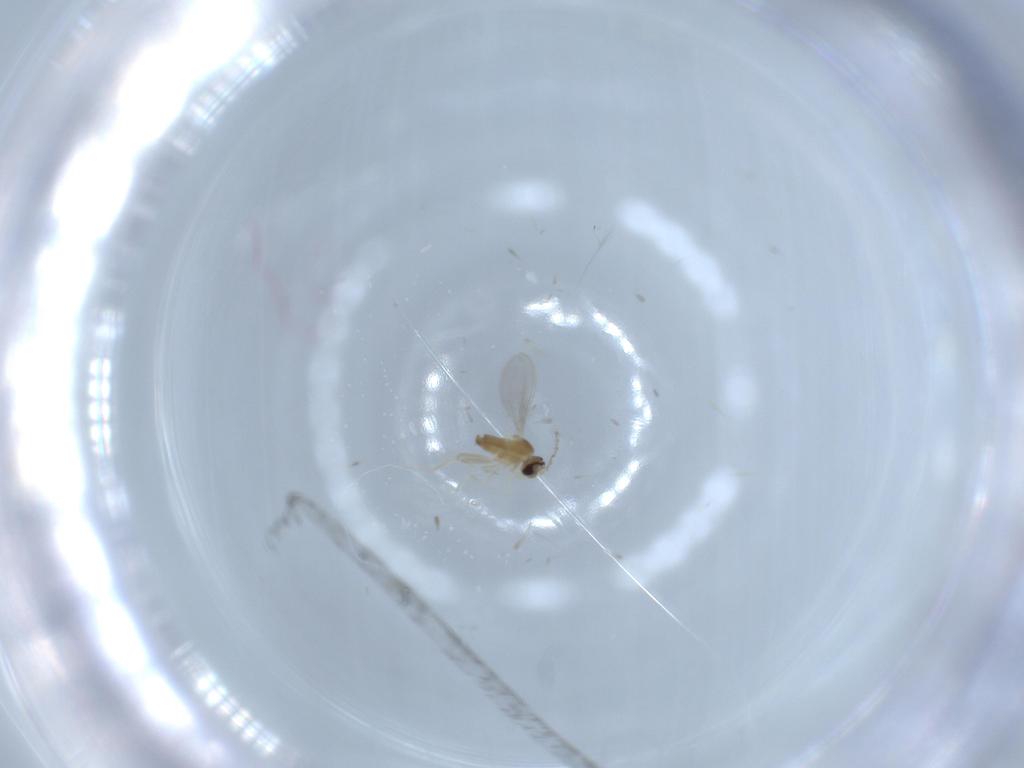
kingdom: Animalia
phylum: Arthropoda
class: Insecta
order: Diptera
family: Cecidomyiidae
